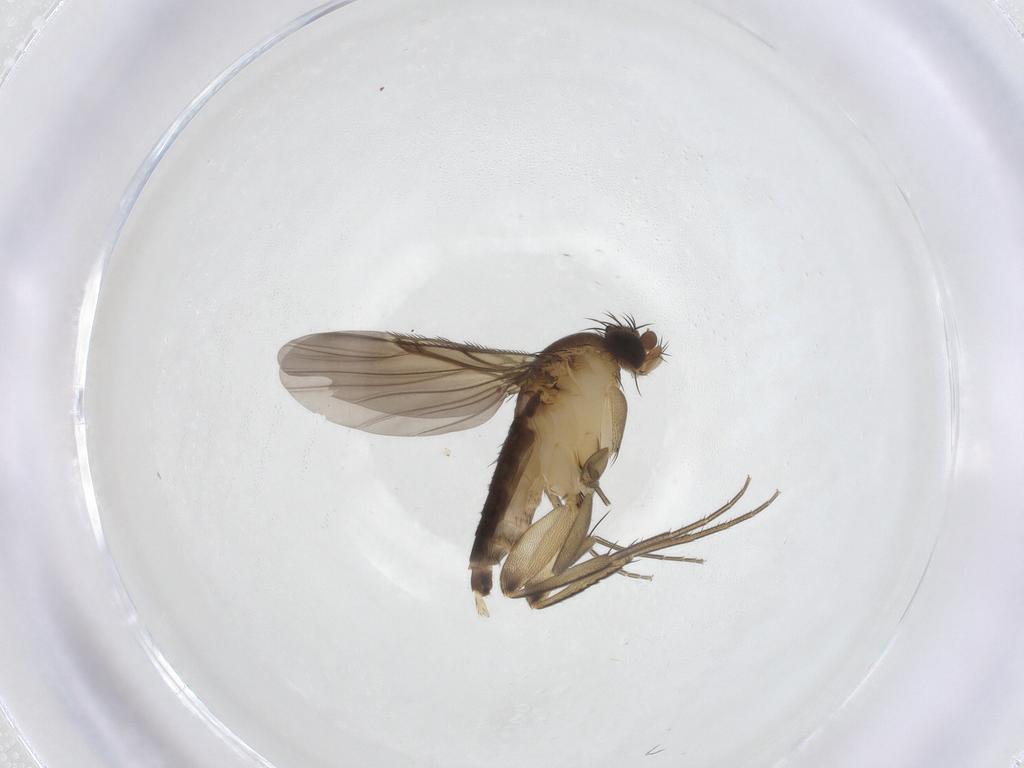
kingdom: Animalia
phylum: Arthropoda
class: Insecta
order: Diptera
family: Phoridae
